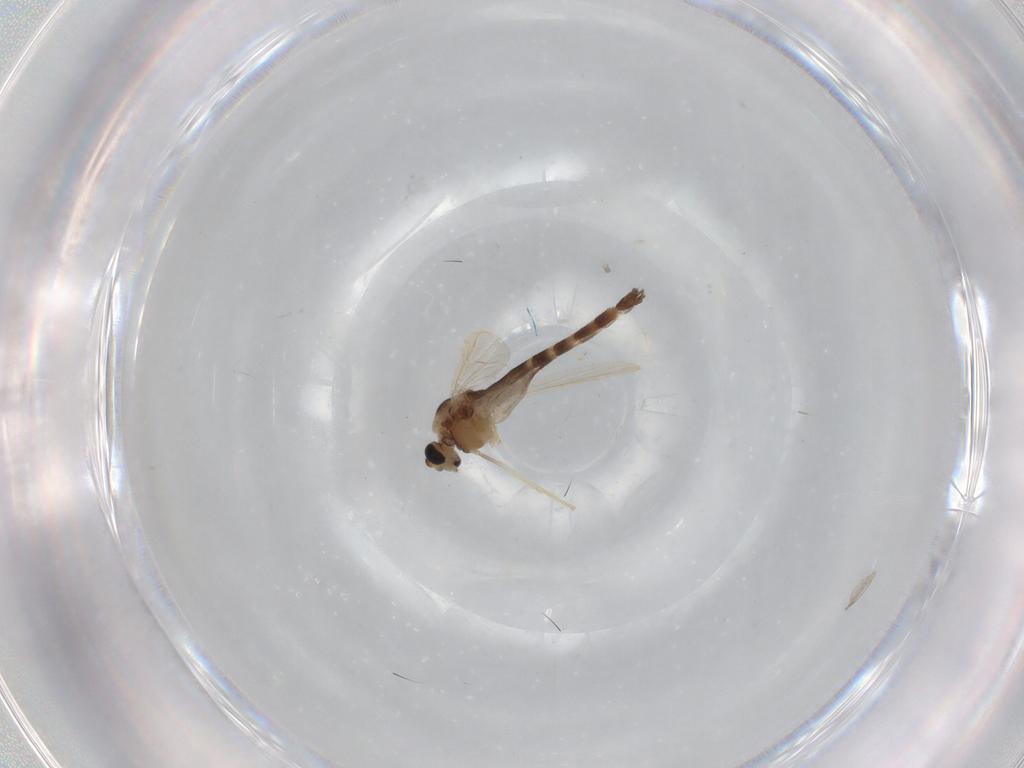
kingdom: Animalia
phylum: Arthropoda
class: Insecta
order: Diptera
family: Chironomidae
